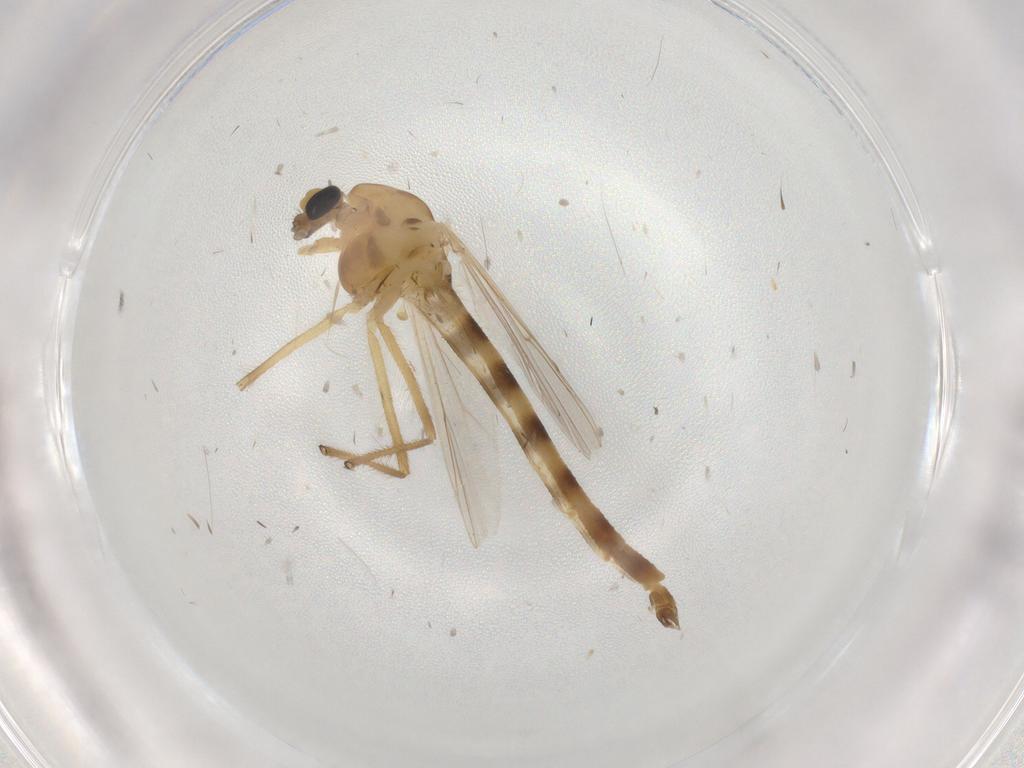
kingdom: Animalia
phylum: Arthropoda
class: Insecta
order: Diptera
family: Chironomidae
